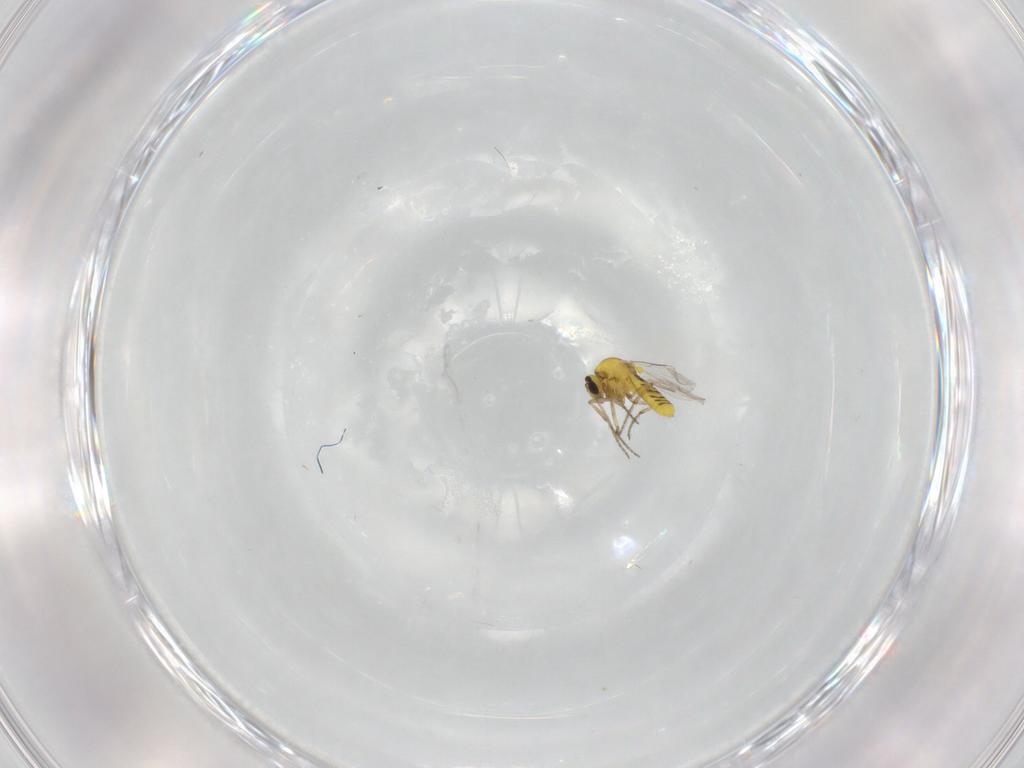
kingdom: Animalia
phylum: Arthropoda
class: Insecta
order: Diptera
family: Ceratopogonidae
